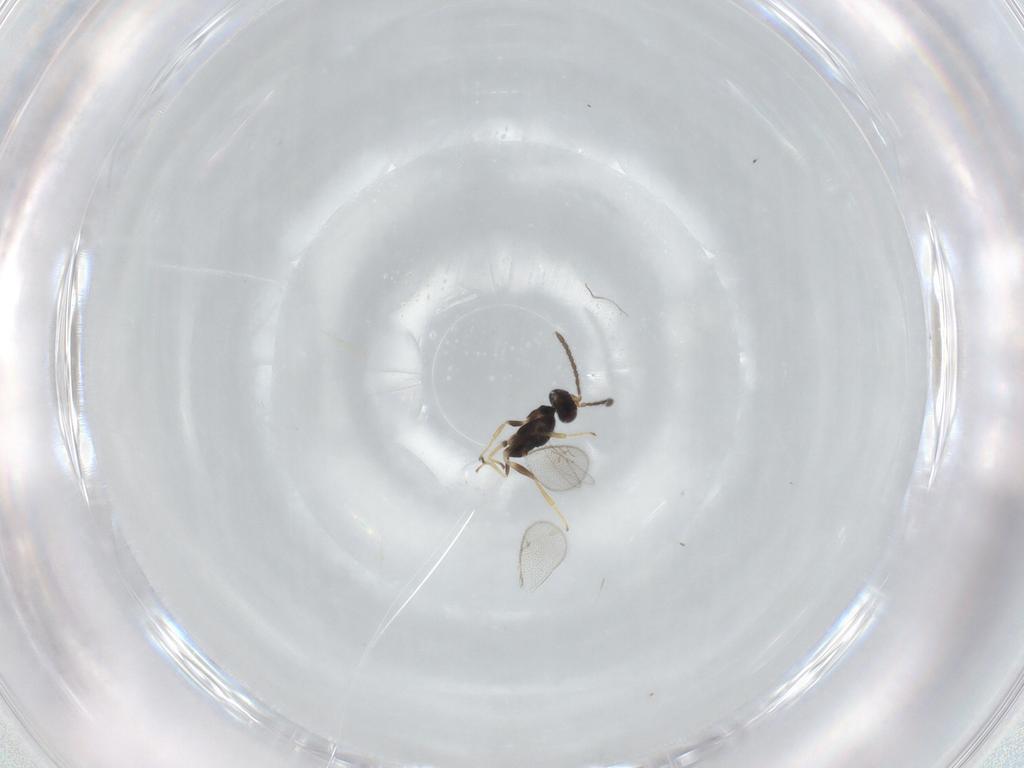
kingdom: Animalia
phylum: Arthropoda
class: Insecta
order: Hymenoptera
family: Eupelmidae
